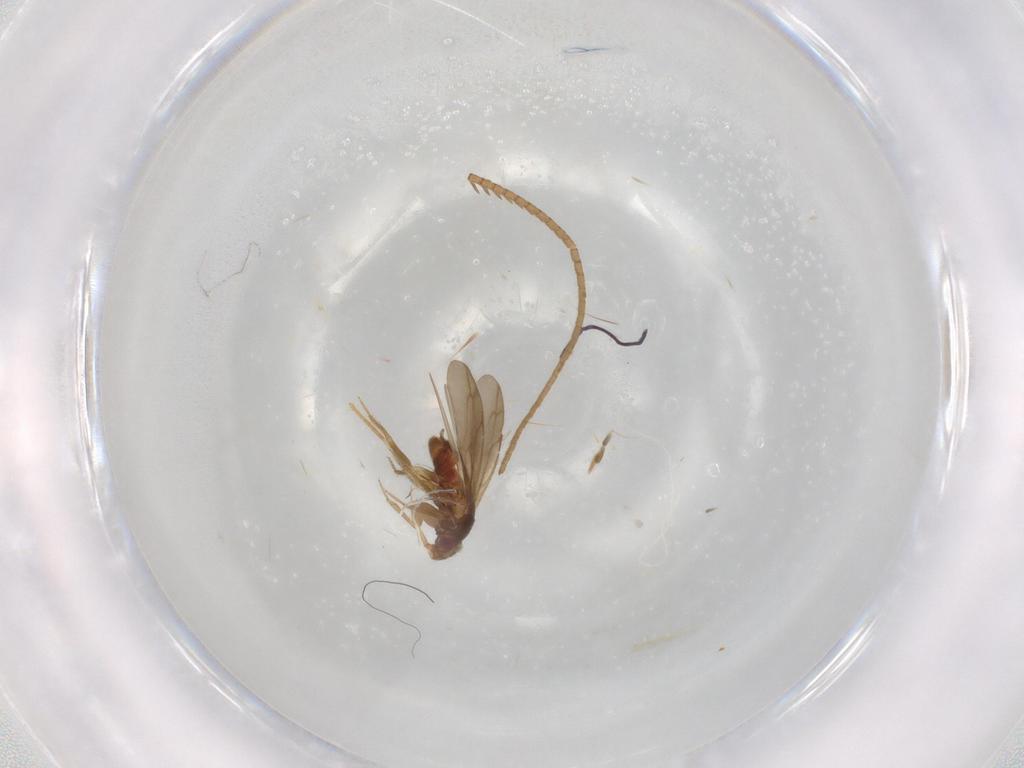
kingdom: Animalia
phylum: Arthropoda
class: Insecta
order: Hemiptera
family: Ceratocombidae
